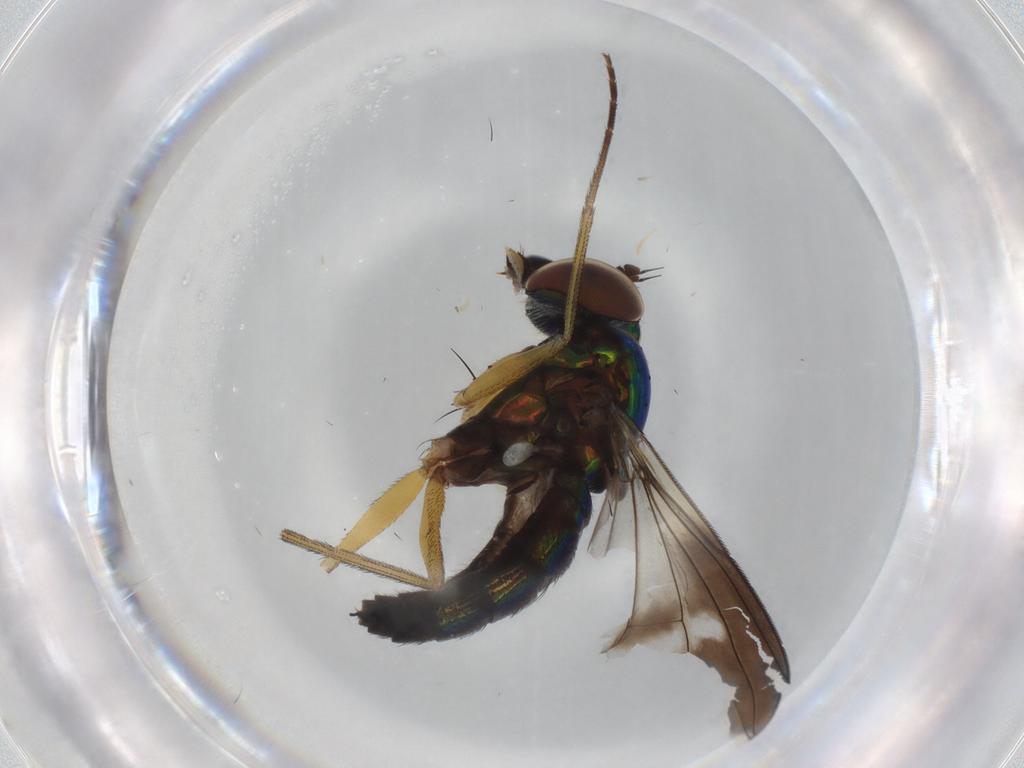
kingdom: Animalia
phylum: Arthropoda
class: Insecta
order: Diptera
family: Dolichopodidae
